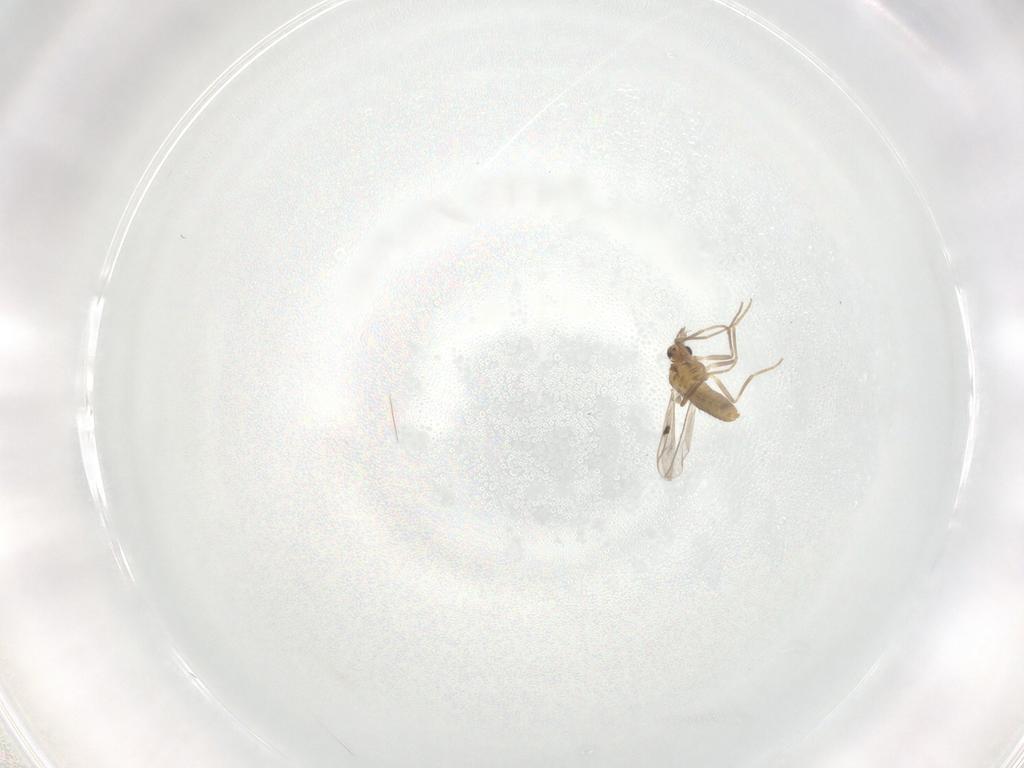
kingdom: Animalia
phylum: Arthropoda
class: Insecta
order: Diptera
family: Psychodidae
